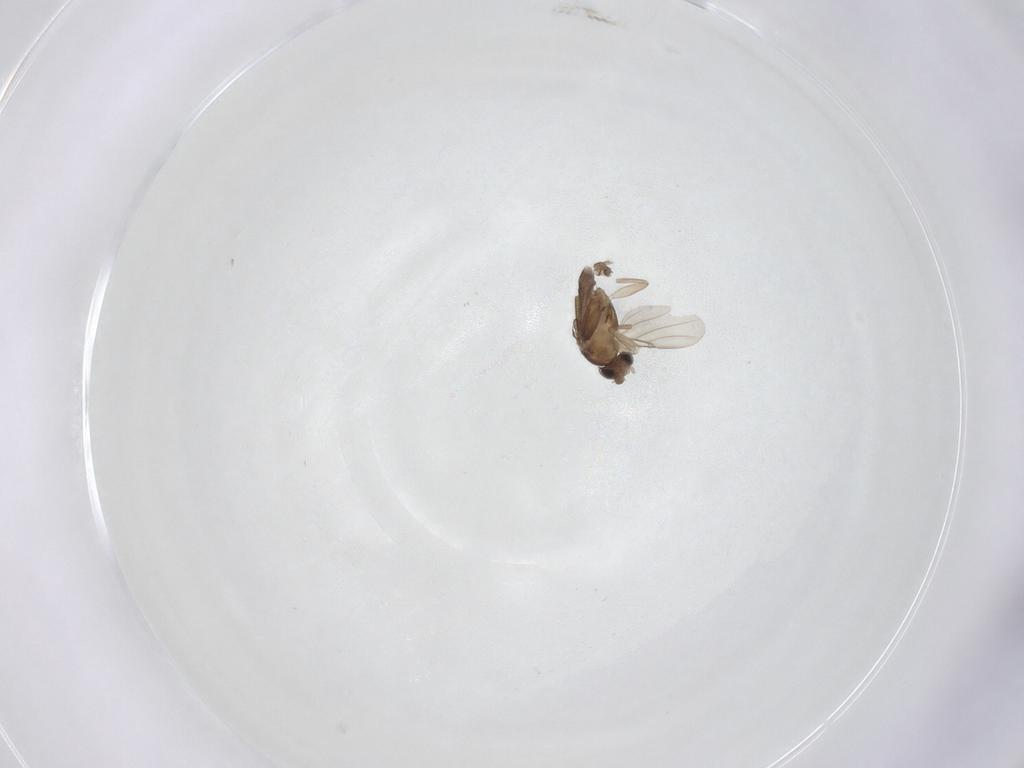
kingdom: Animalia
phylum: Arthropoda
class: Insecta
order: Diptera
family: Phoridae
